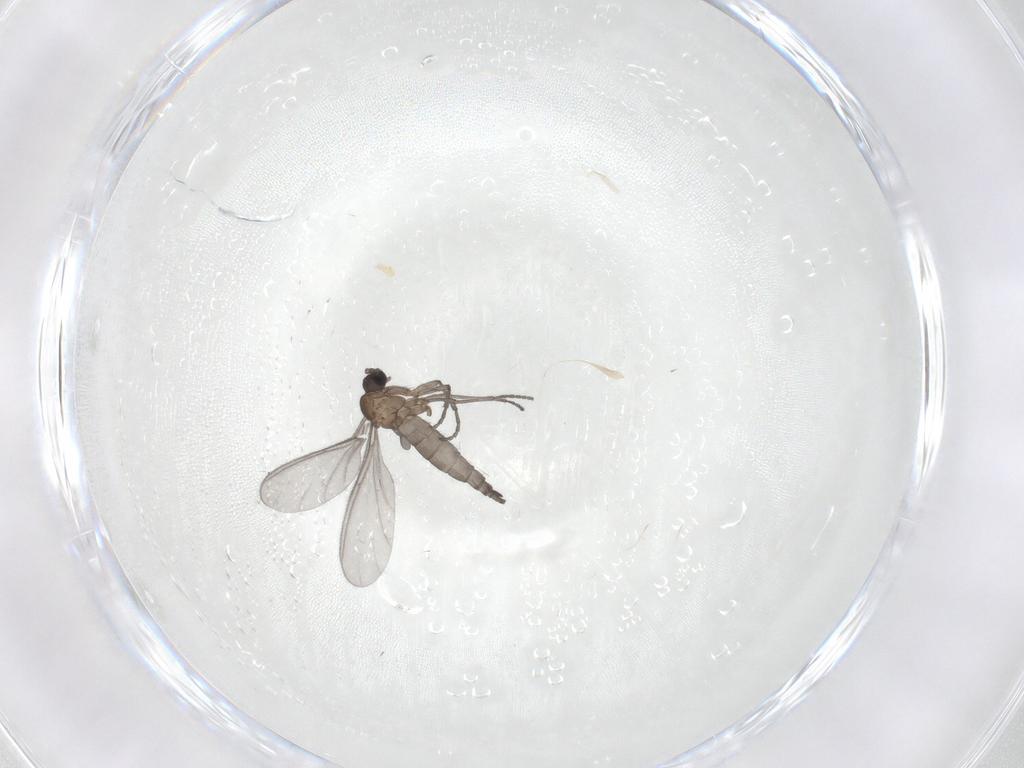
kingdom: Animalia
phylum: Arthropoda
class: Insecta
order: Diptera
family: Sciaridae
